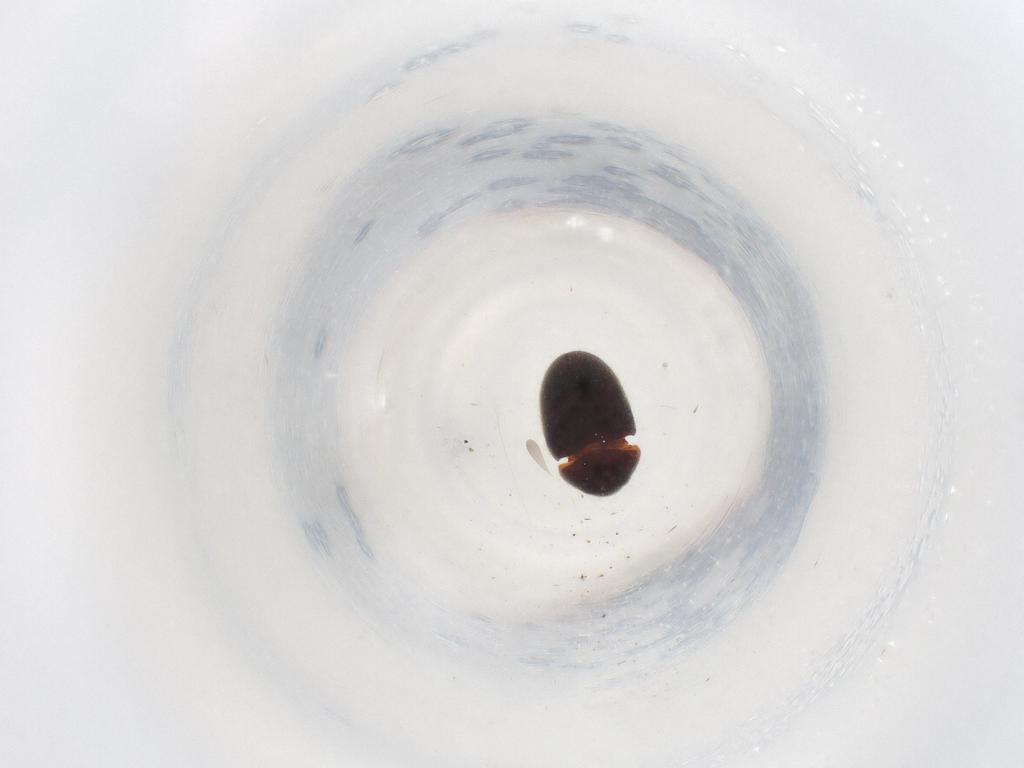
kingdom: Animalia
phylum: Arthropoda
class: Insecta
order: Coleoptera
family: Ptinidae
